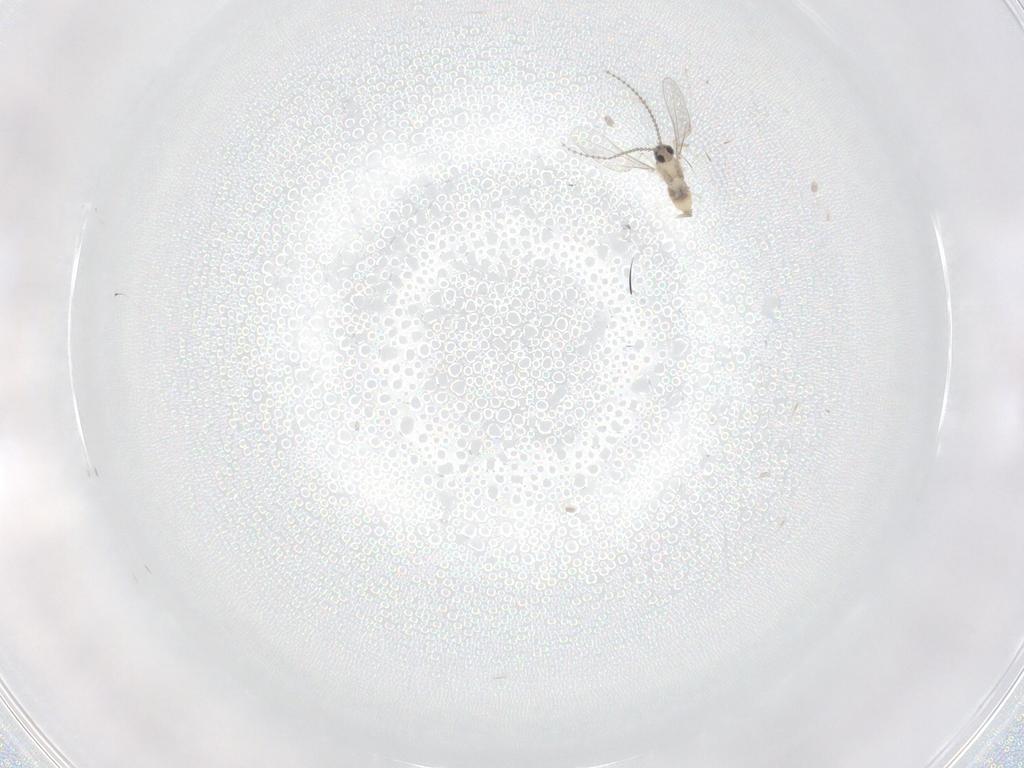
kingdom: Animalia
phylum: Arthropoda
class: Insecta
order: Diptera
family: Cecidomyiidae
